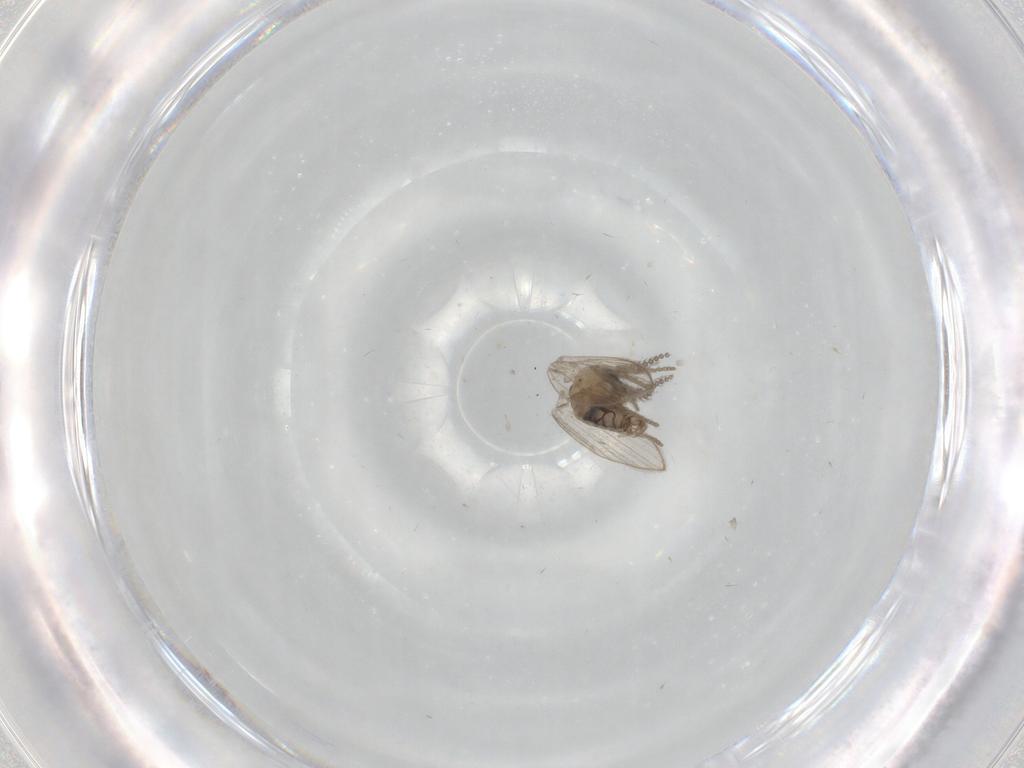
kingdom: Animalia
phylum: Arthropoda
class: Insecta
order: Diptera
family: Psychodidae
